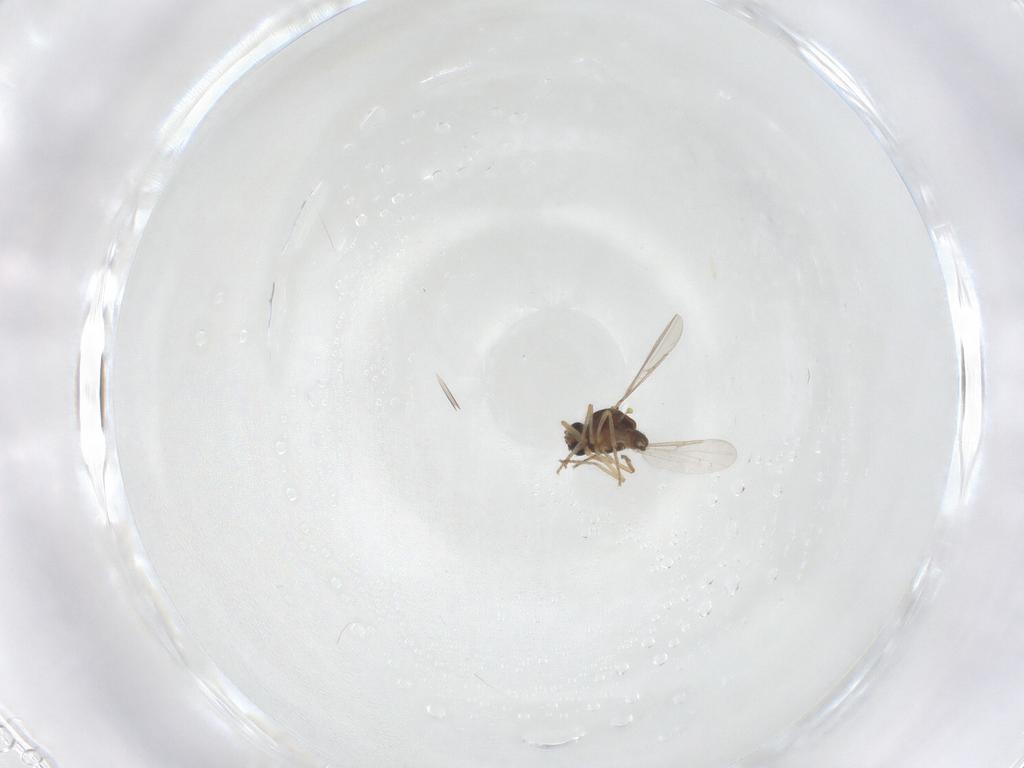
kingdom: Animalia
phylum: Arthropoda
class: Insecta
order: Diptera
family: Cecidomyiidae
